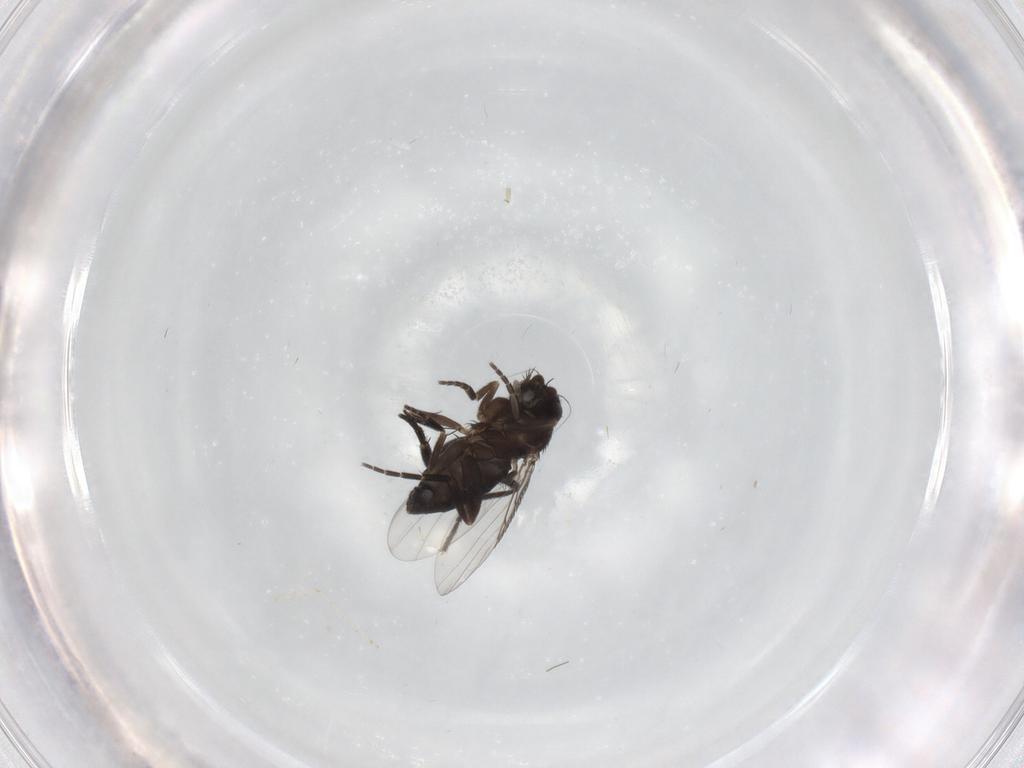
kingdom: Animalia
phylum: Arthropoda
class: Insecta
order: Diptera
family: Phoridae
